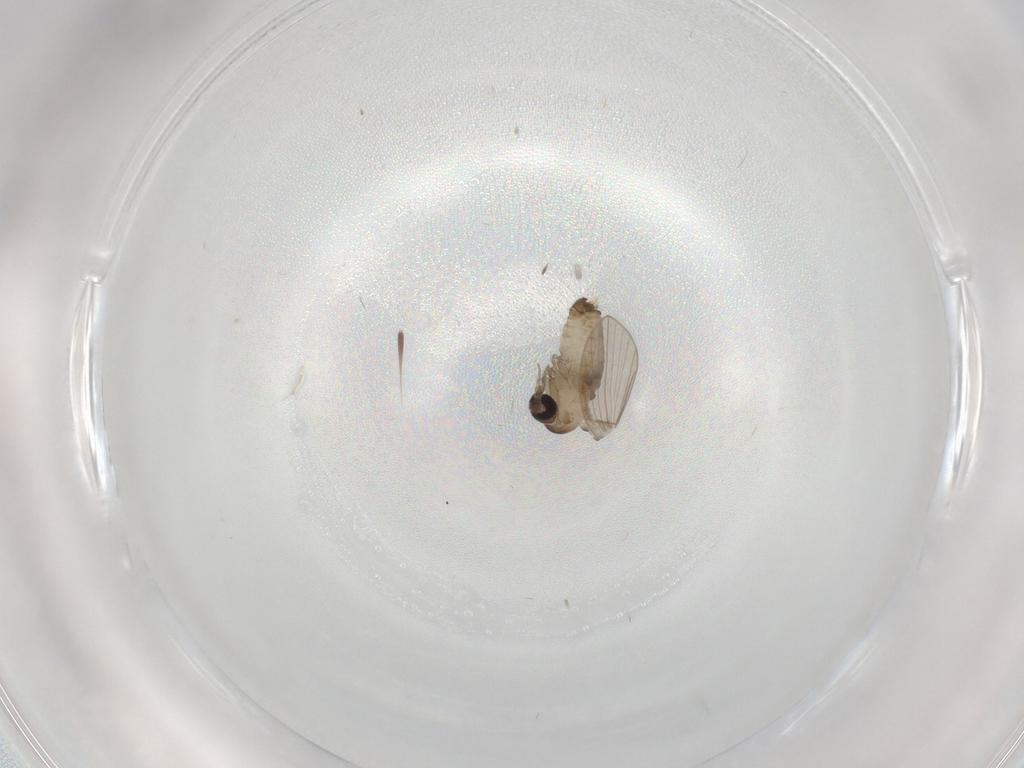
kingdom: Animalia
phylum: Arthropoda
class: Insecta
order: Diptera
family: Psychodidae
